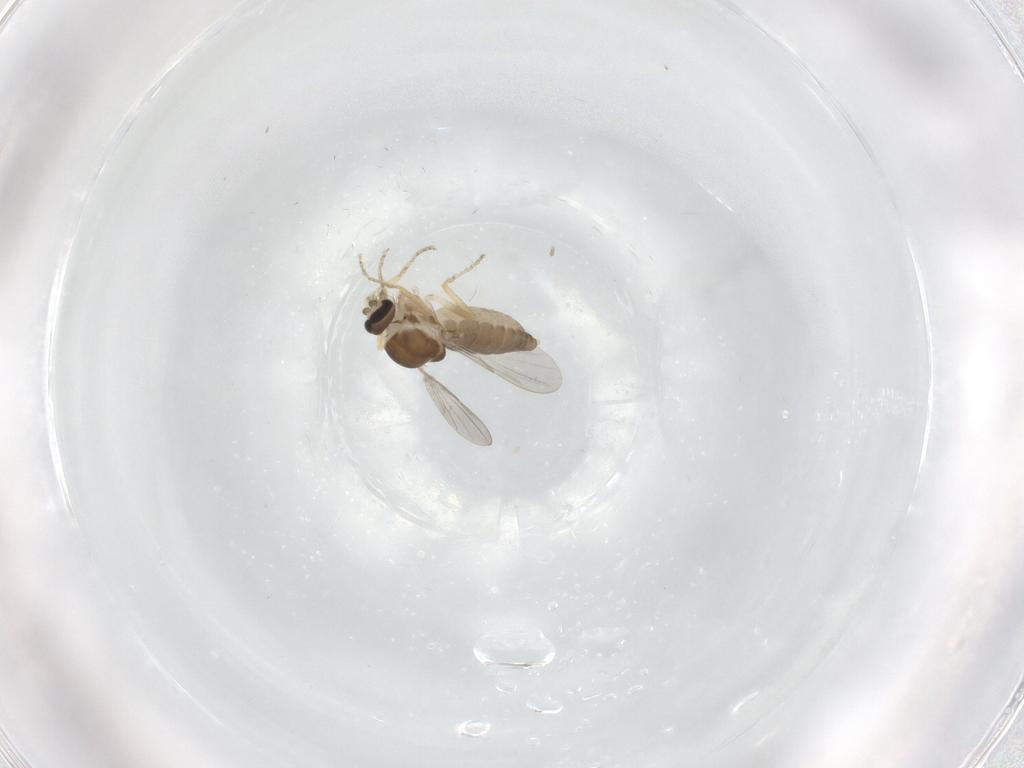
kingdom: Animalia
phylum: Arthropoda
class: Insecta
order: Diptera
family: Ceratopogonidae
